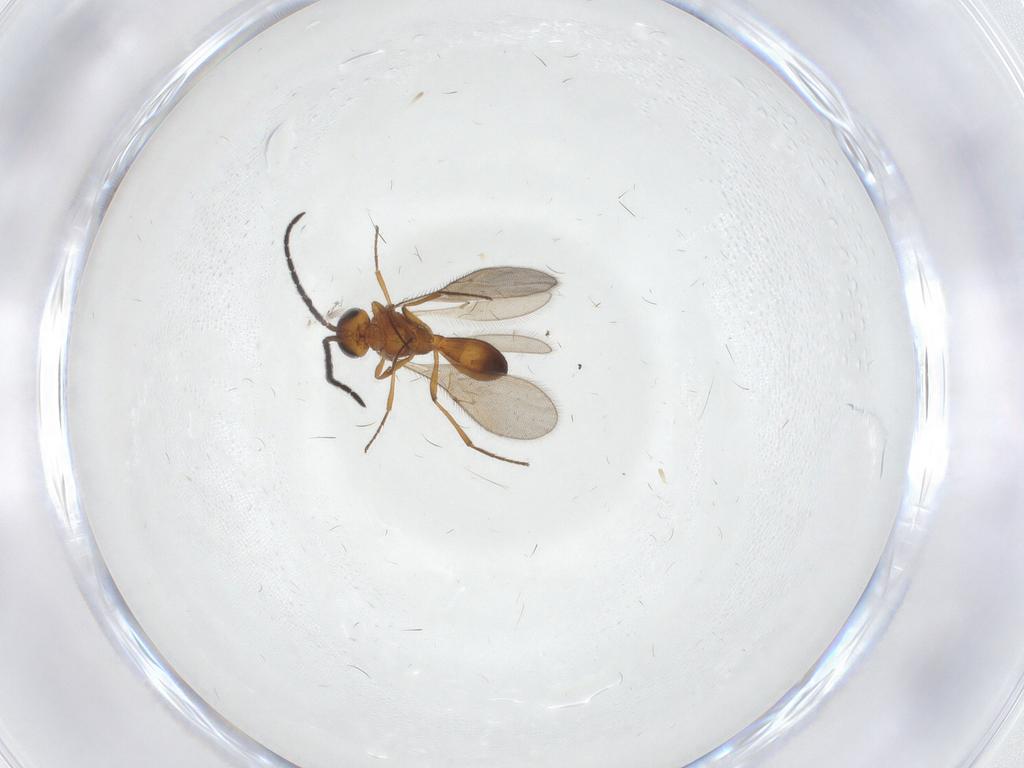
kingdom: Animalia
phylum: Arthropoda
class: Insecta
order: Hymenoptera
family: Scelionidae
